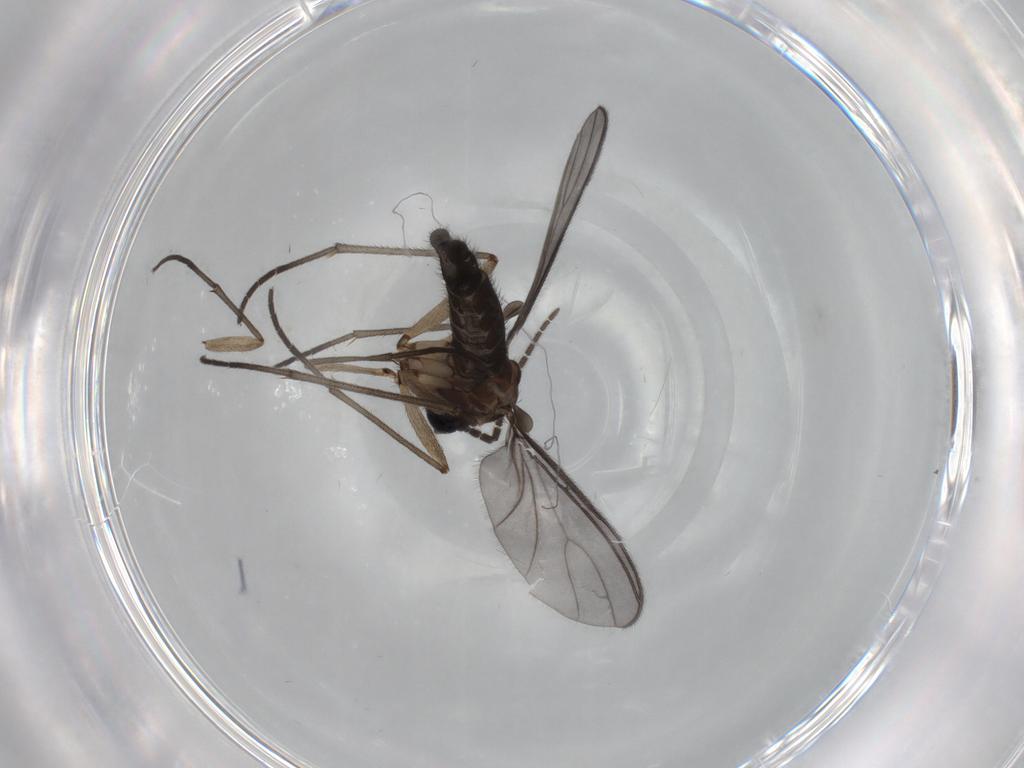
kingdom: Animalia
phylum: Arthropoda
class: Insecta
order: Diptera
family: Sciaridae
